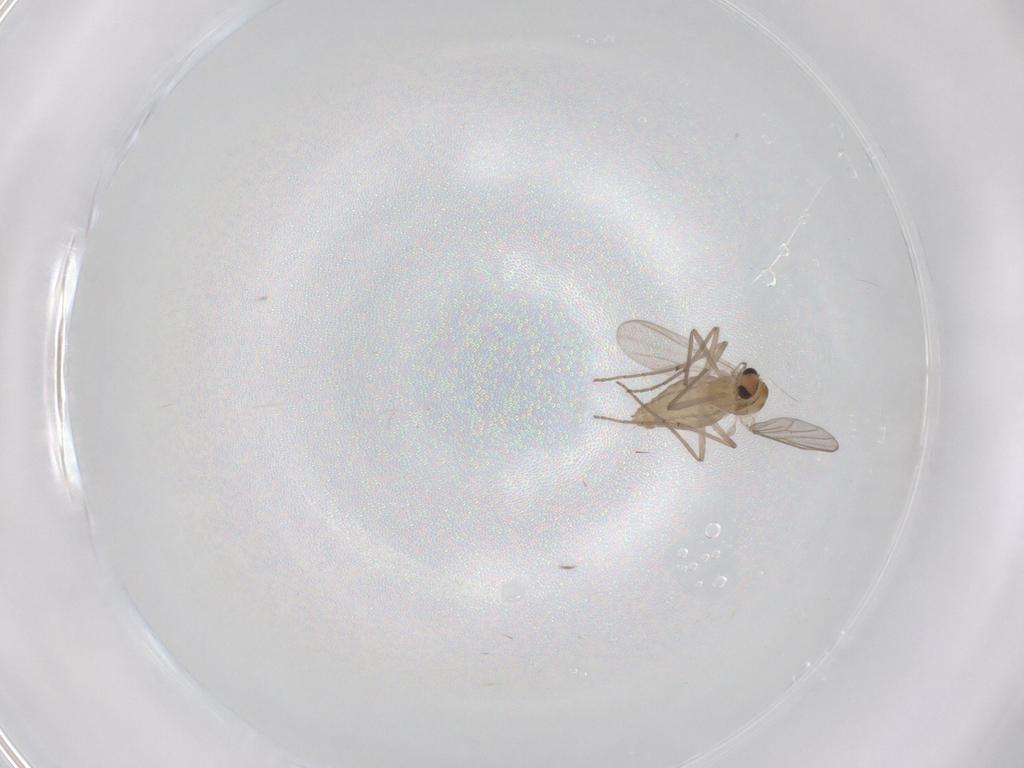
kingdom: Animalia
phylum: Arthropoda
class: Insecta
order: Diptera
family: Chironomidae
